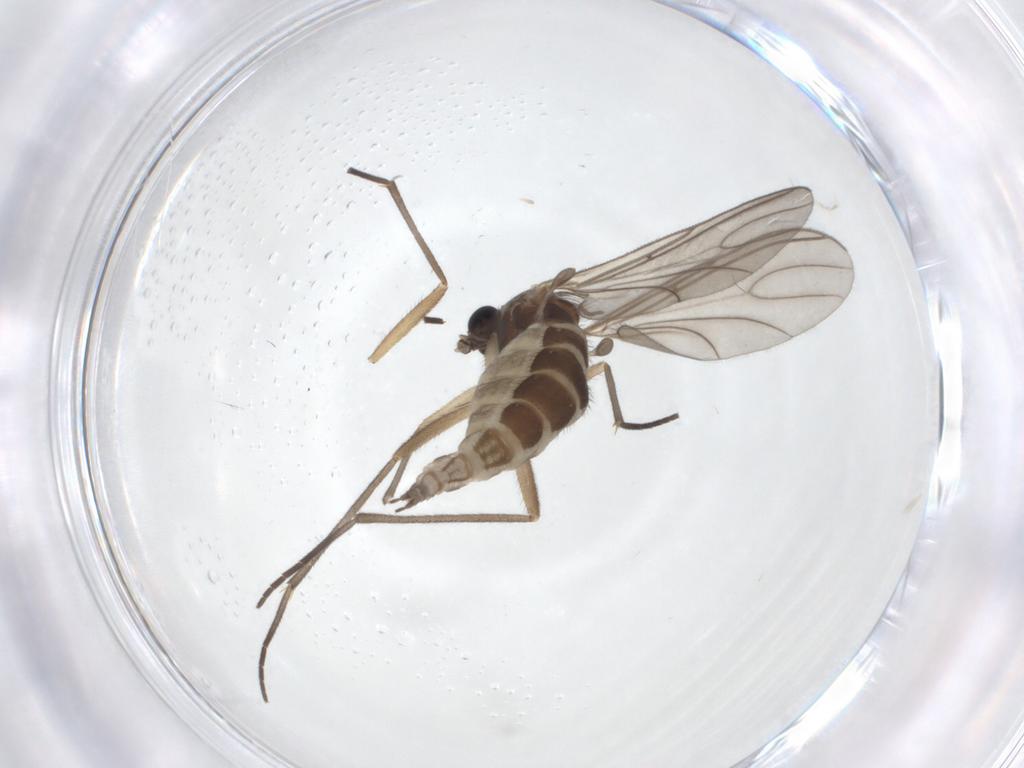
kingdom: Animalia
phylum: Arthropoda
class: Insecta
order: Diptera
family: Sciaridae
